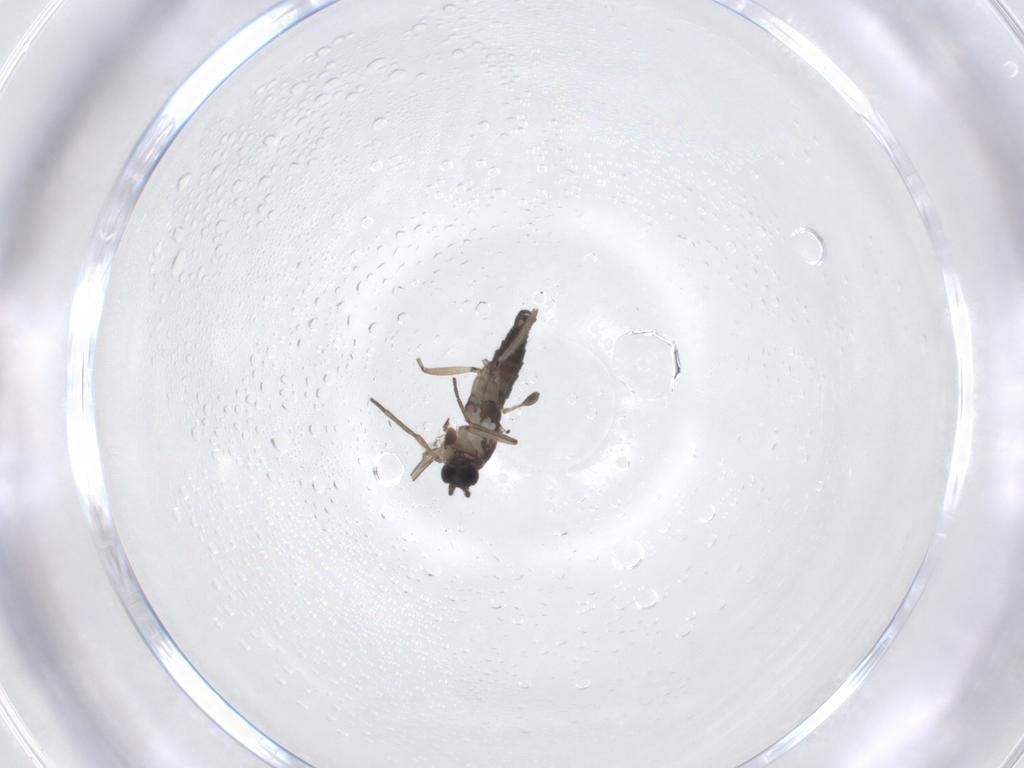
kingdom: Animalia
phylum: Arthropoda
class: Insecta
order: Diptera
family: Sciaridae
